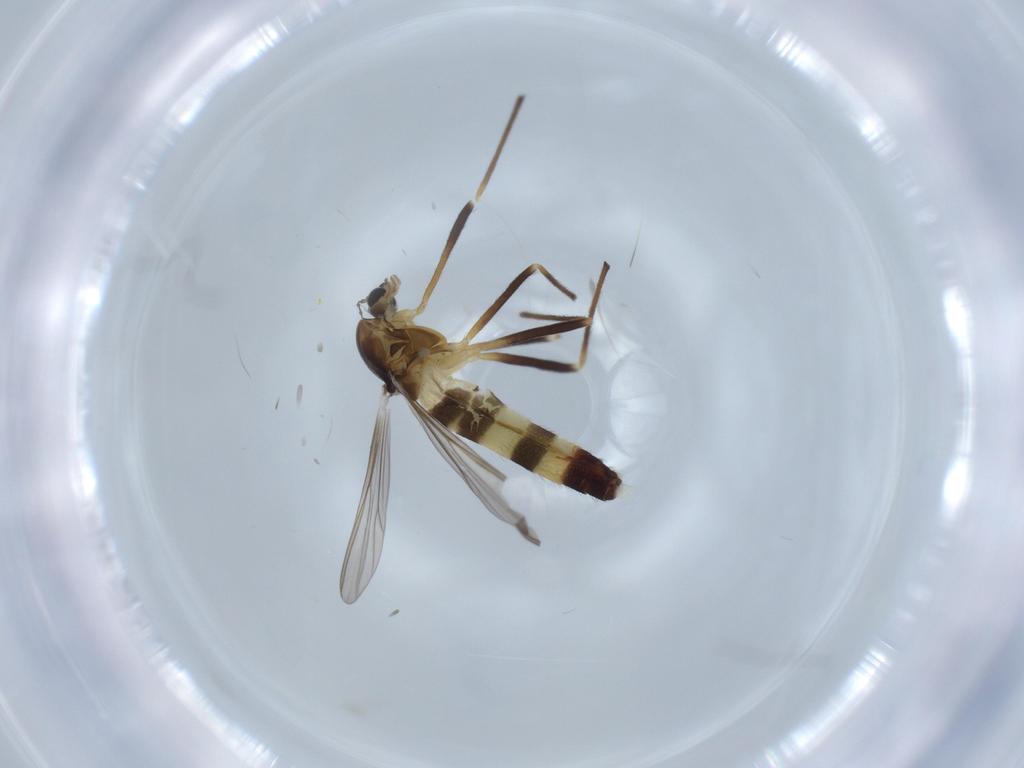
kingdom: Animalia
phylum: Arthropoda
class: Insecta
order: Diptera
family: Chironomidae
